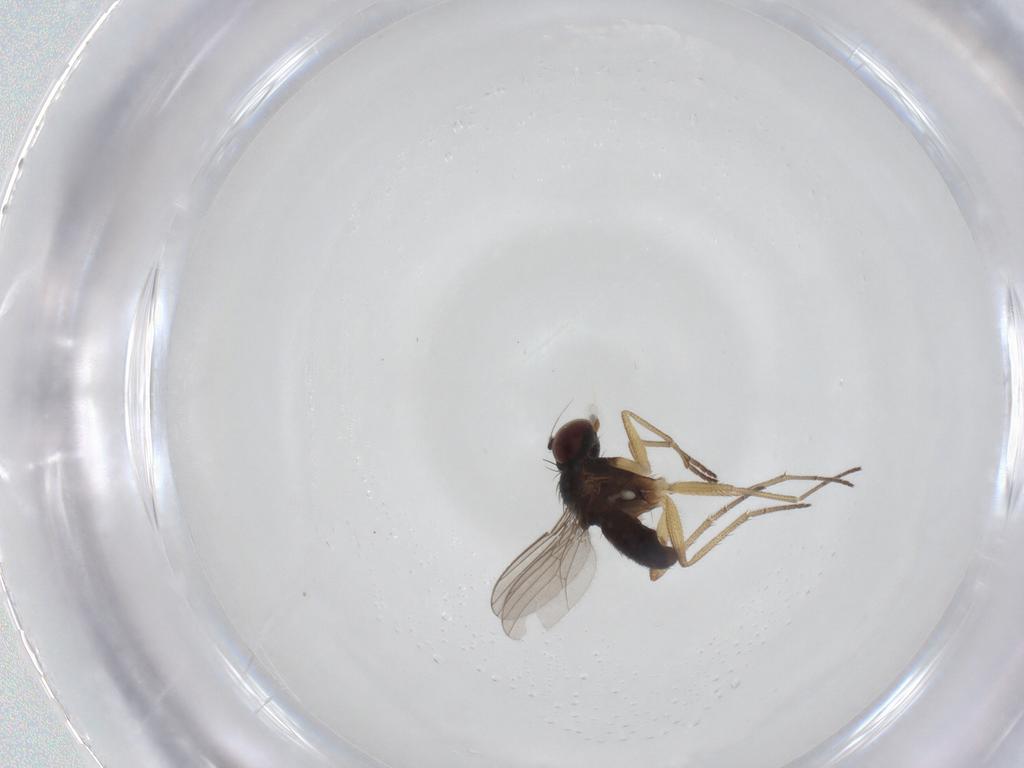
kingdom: Animalia
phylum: Arthropoda
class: Insecta
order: Diptera
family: Dolichopodidae
